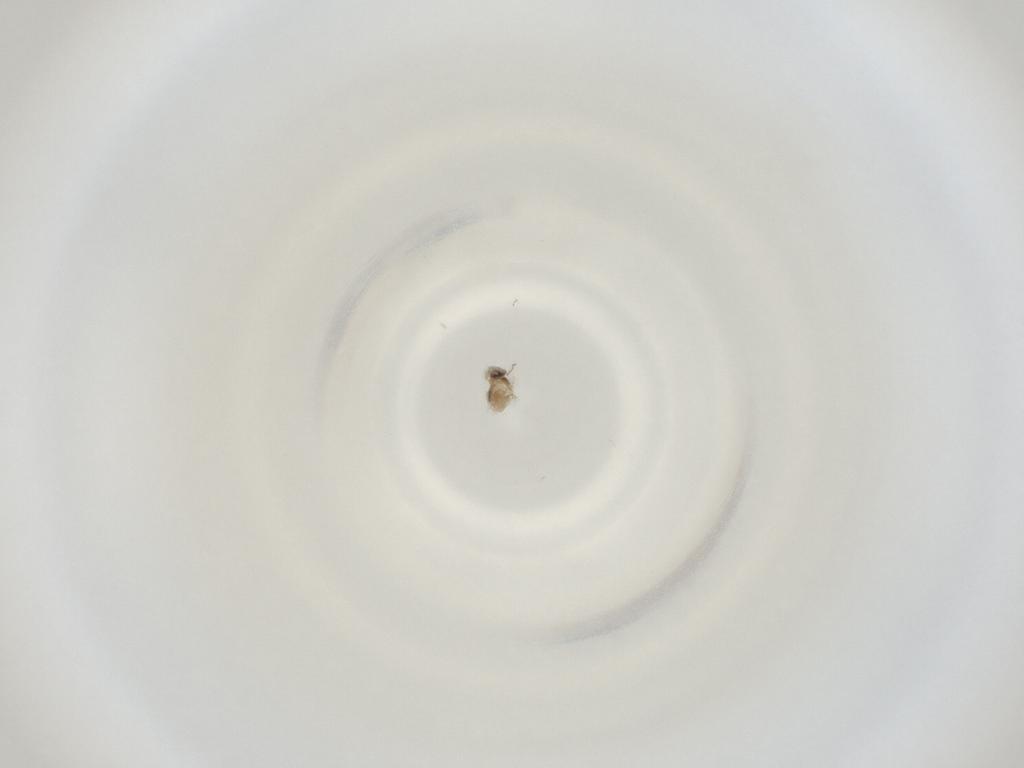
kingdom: Animalia
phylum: Arthropoda
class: Insecta
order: Diptera
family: Cecidomyiidae
